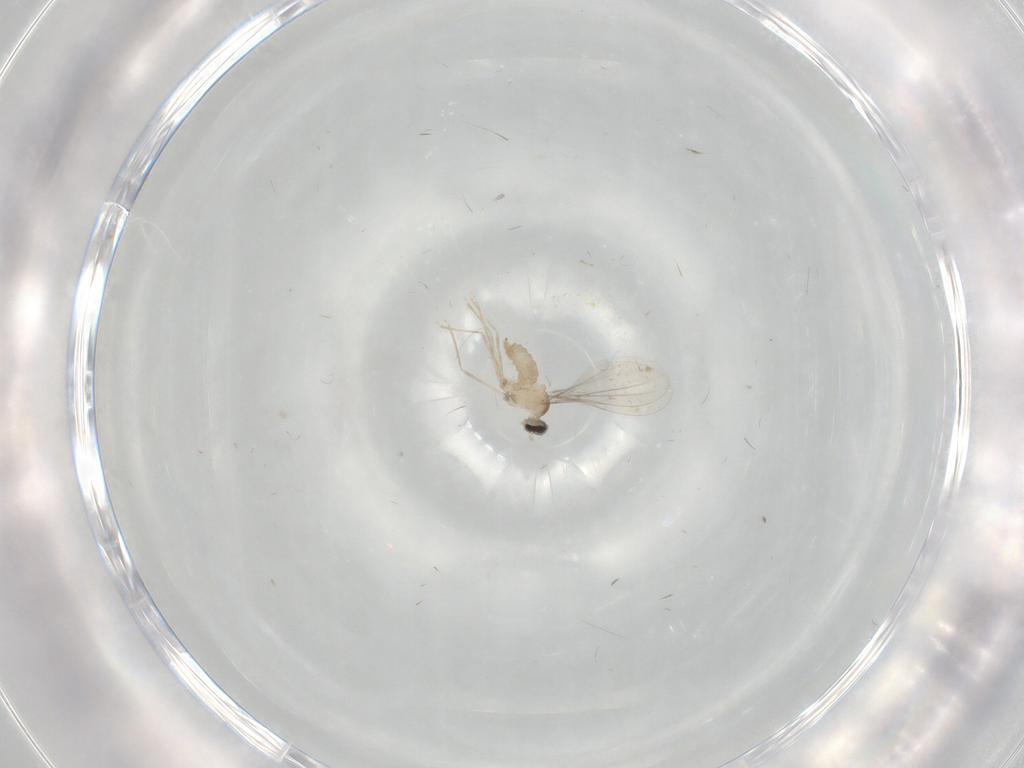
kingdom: Animalia
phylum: Arthropoda
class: Insecta
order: Diptera
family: Cecidomyiidae
